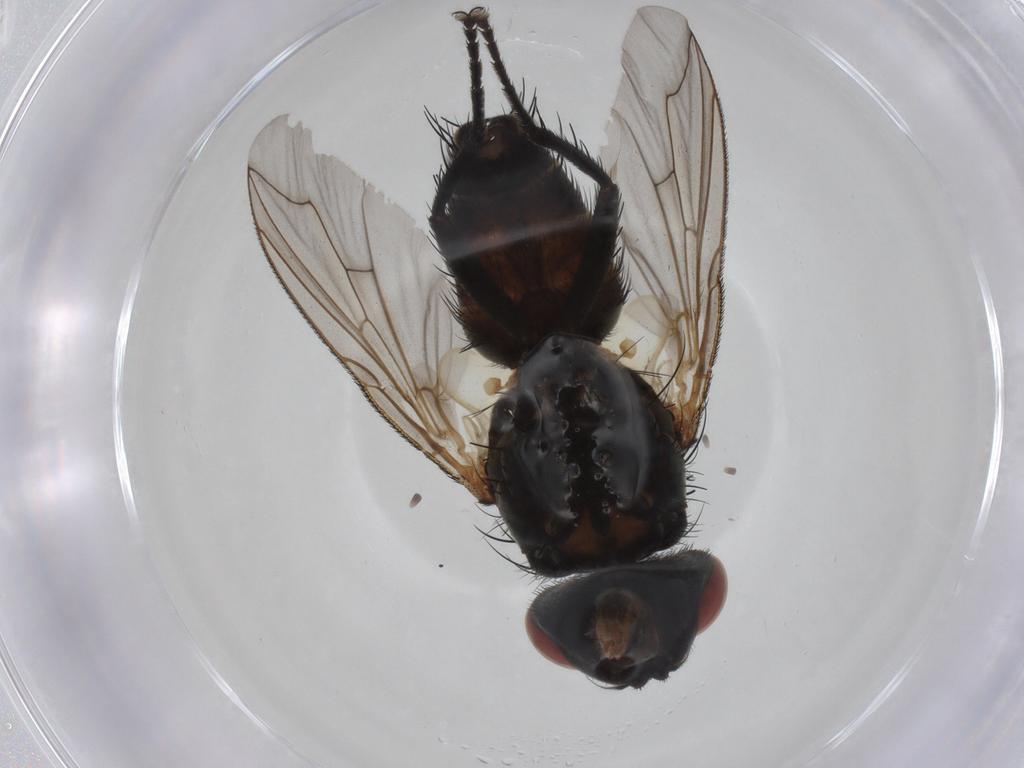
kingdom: Animalia
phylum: Arthropoda
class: Insecta
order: Diptera
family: Sarcophagidae
